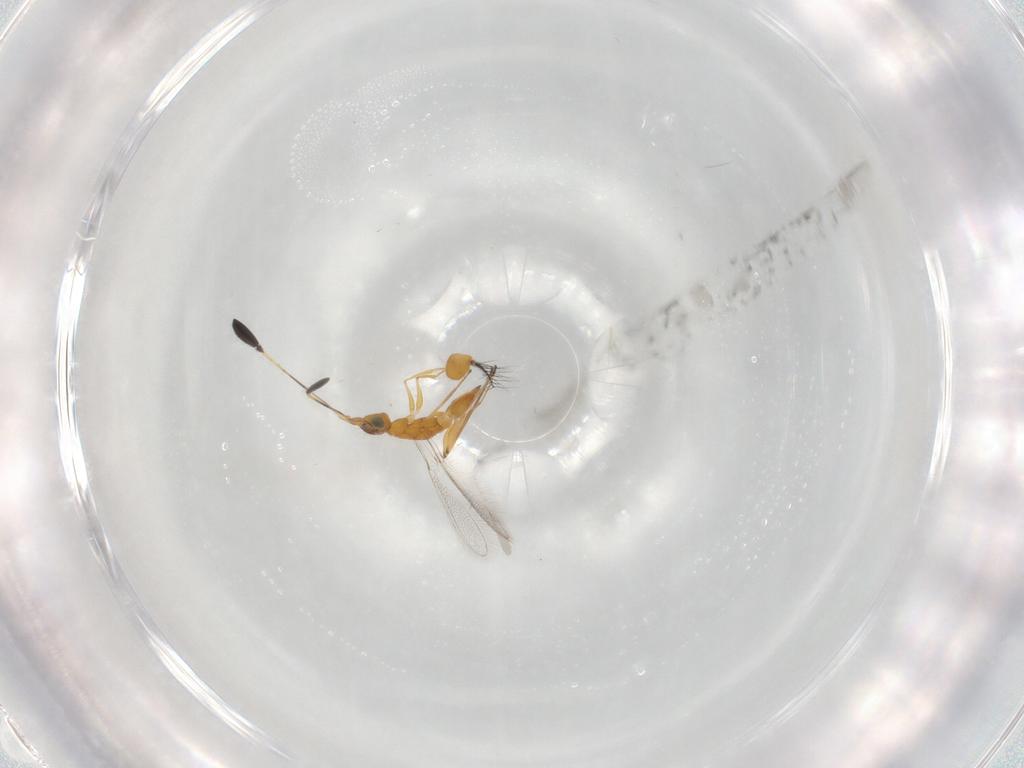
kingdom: Animalia
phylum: Arthropoda
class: Insecta
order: Hymenoptera
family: Mymaridae
